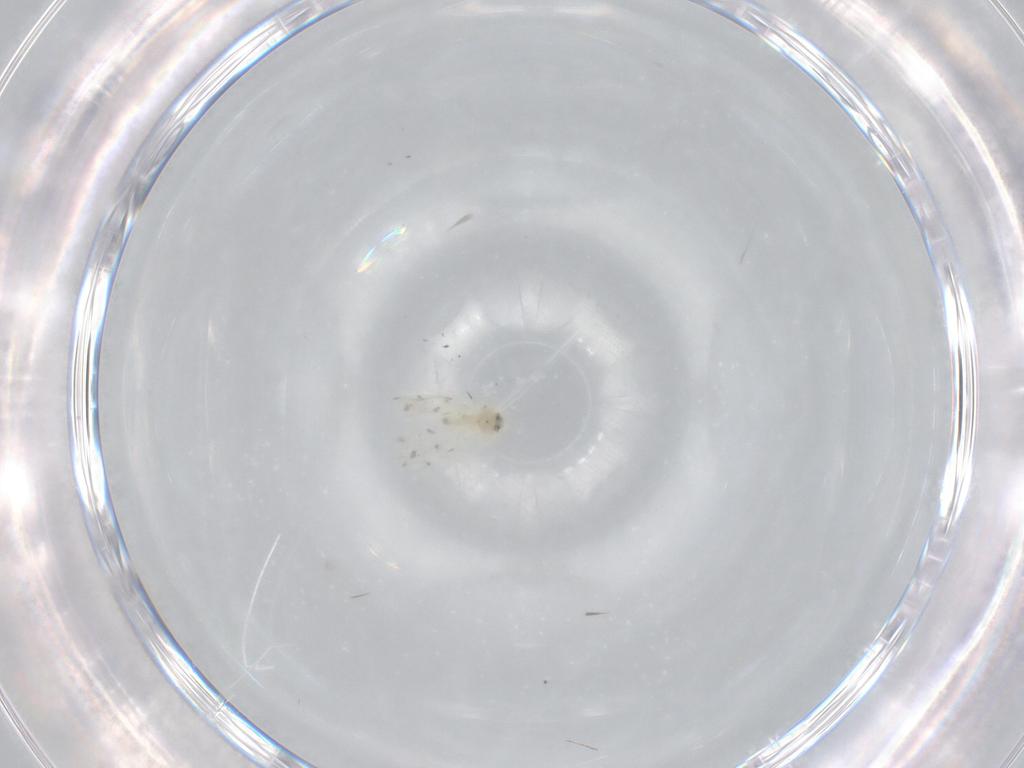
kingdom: Animalia
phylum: Arthropoda
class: Insecta
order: Hemiptera
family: Aleyrodidae
